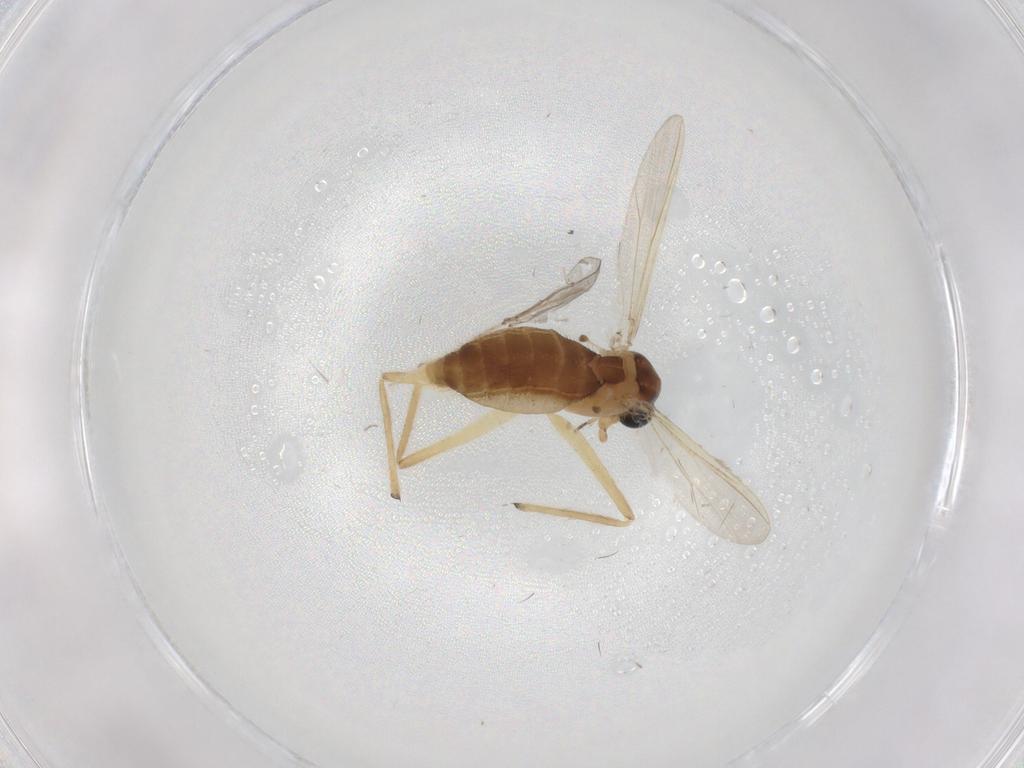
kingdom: Animalia
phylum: Arthropoda
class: Insecta
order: Diptera
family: Chironomidae
